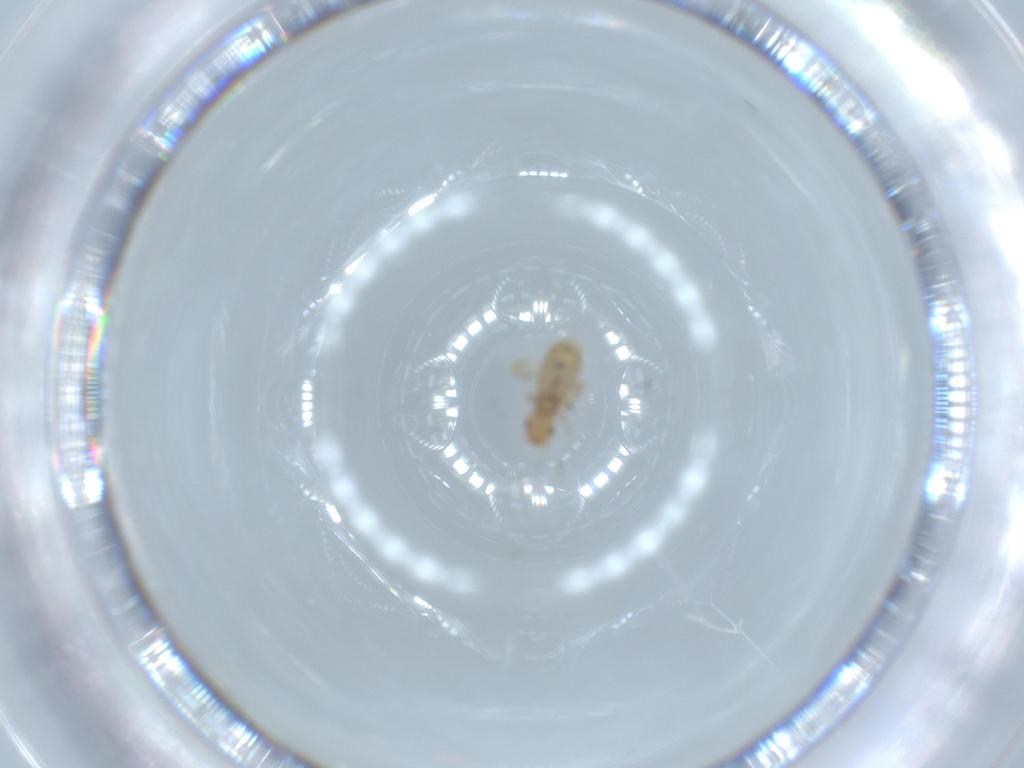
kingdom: Animalia
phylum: Arthropoda
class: Insecta
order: Psocodea
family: Liposcelididae
